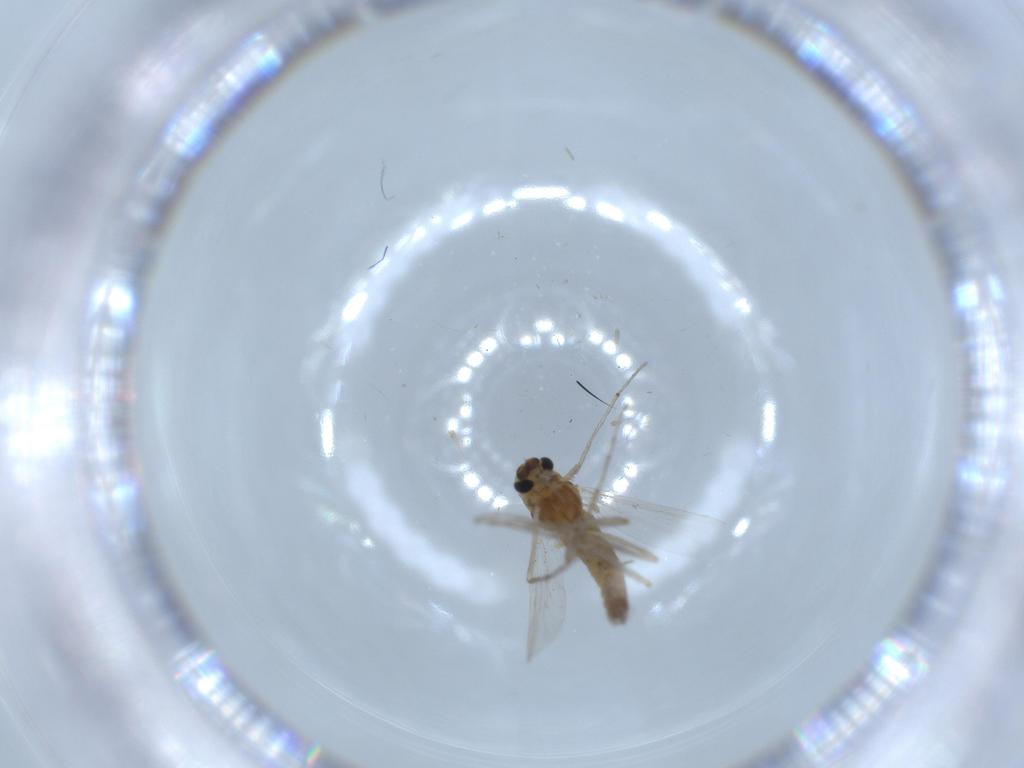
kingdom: Animalia
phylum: Arthropoda
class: Insecta
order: Diptera
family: Chironomidae
